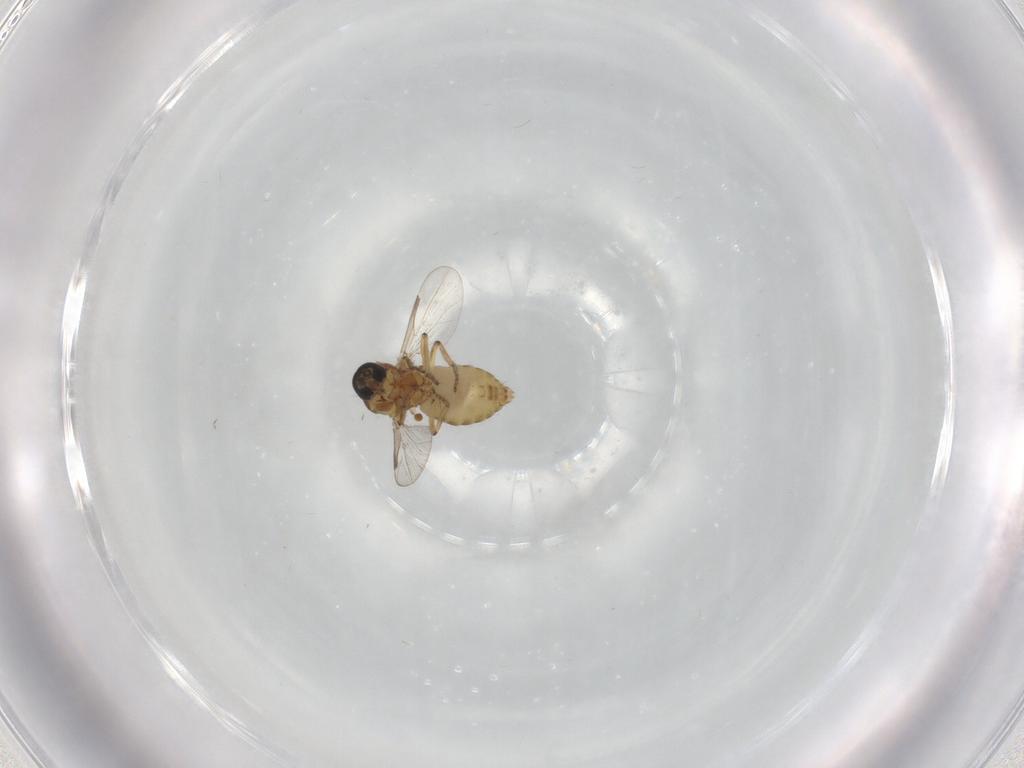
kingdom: Animalia
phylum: Arthropoda
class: Insecta
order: Diptera
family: Ceratopogonidae
